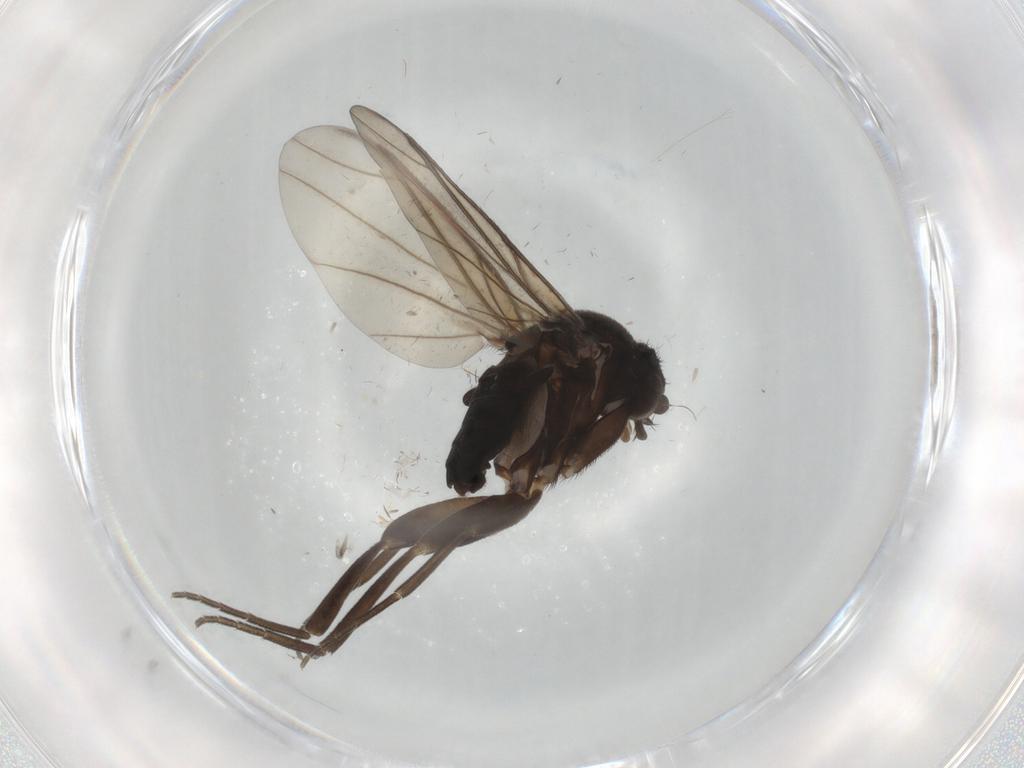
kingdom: Animalia
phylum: Arthropoda
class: Insecta
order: Diptera
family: Phoridae
